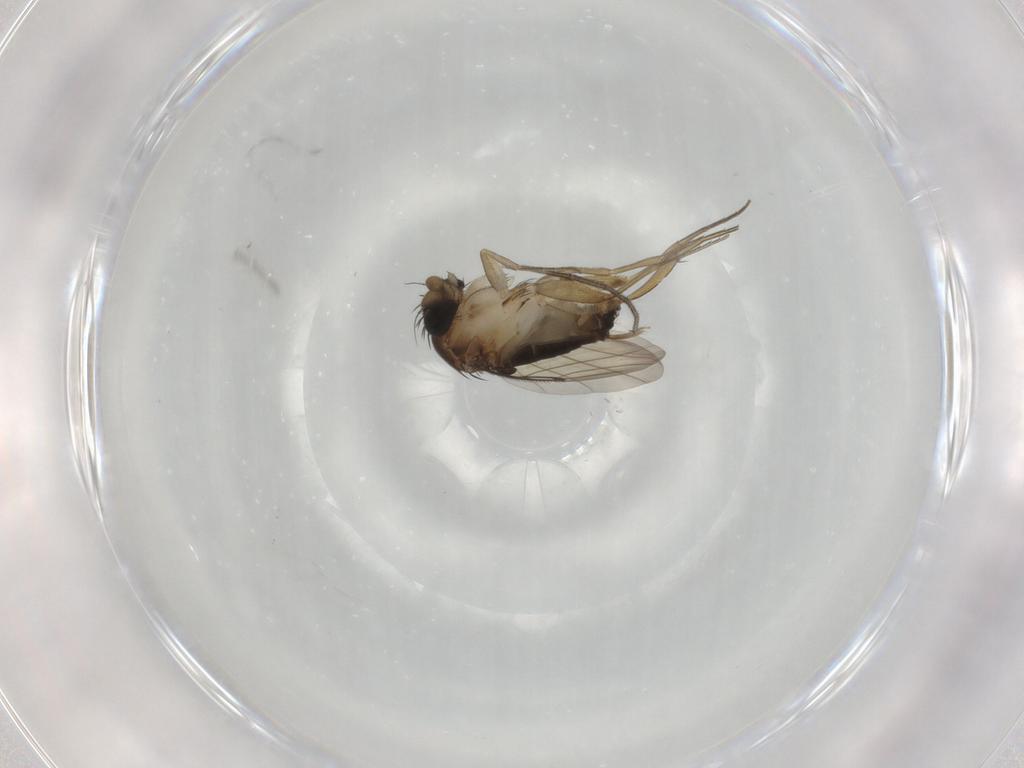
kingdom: Animalia
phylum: Arthropoda
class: Insecta
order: Diptera
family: Phoridae
